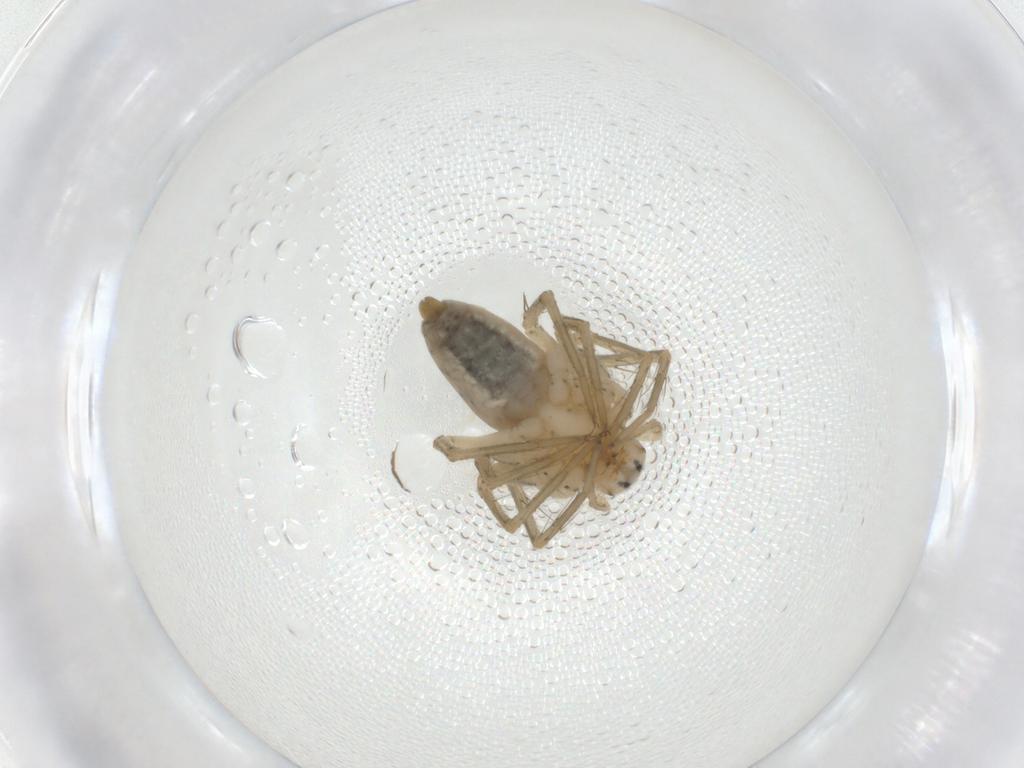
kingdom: Animalia
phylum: Arthropoda
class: Arachnida
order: Araneae
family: Oxyopidae
